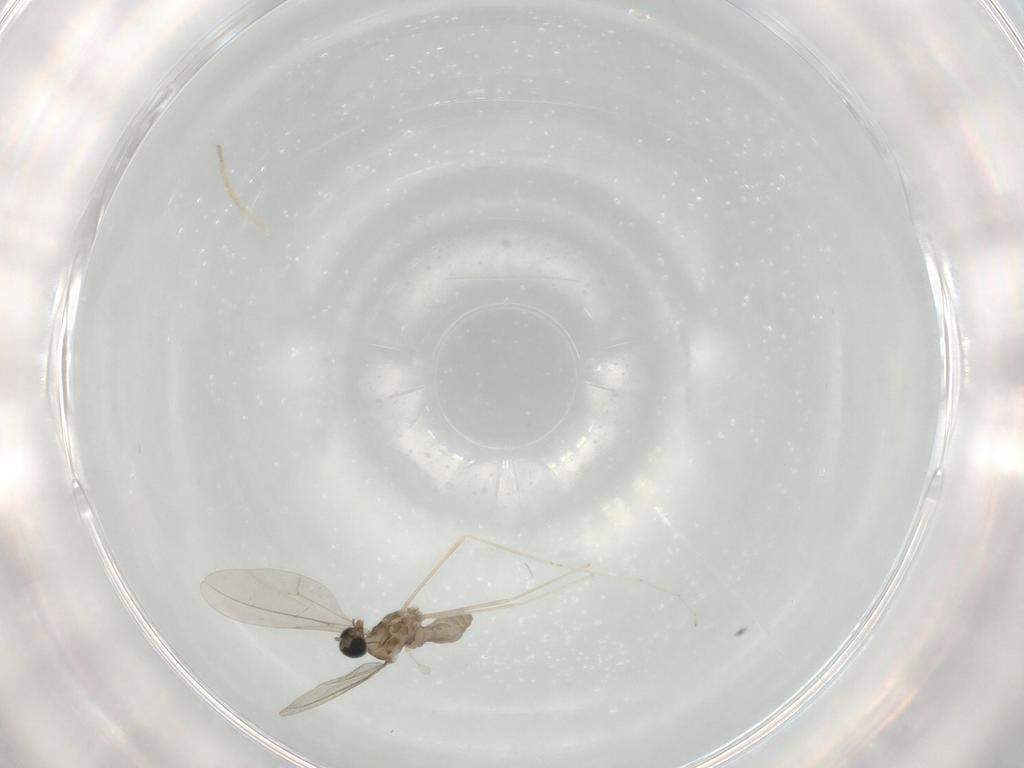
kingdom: Animalia
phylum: Arthropoda
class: Insecta
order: Diptera
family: Cecidomyiidae
